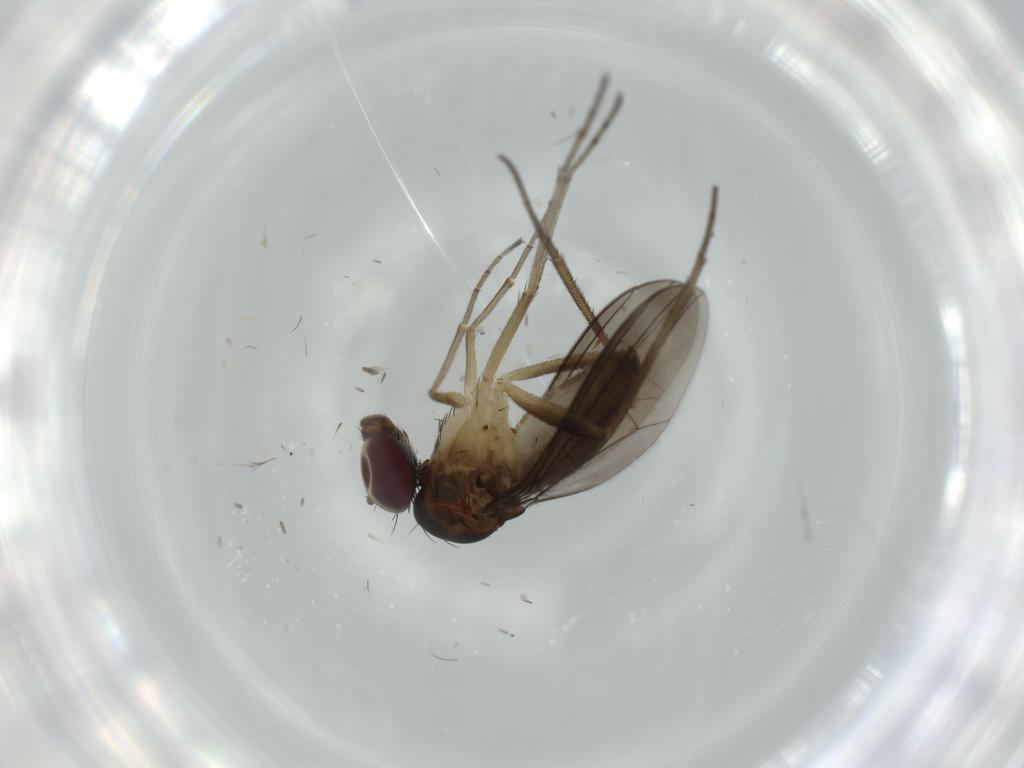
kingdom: Animalia
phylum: Arthropoda
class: Insecta
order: Diptera
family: Dolichopodidae
